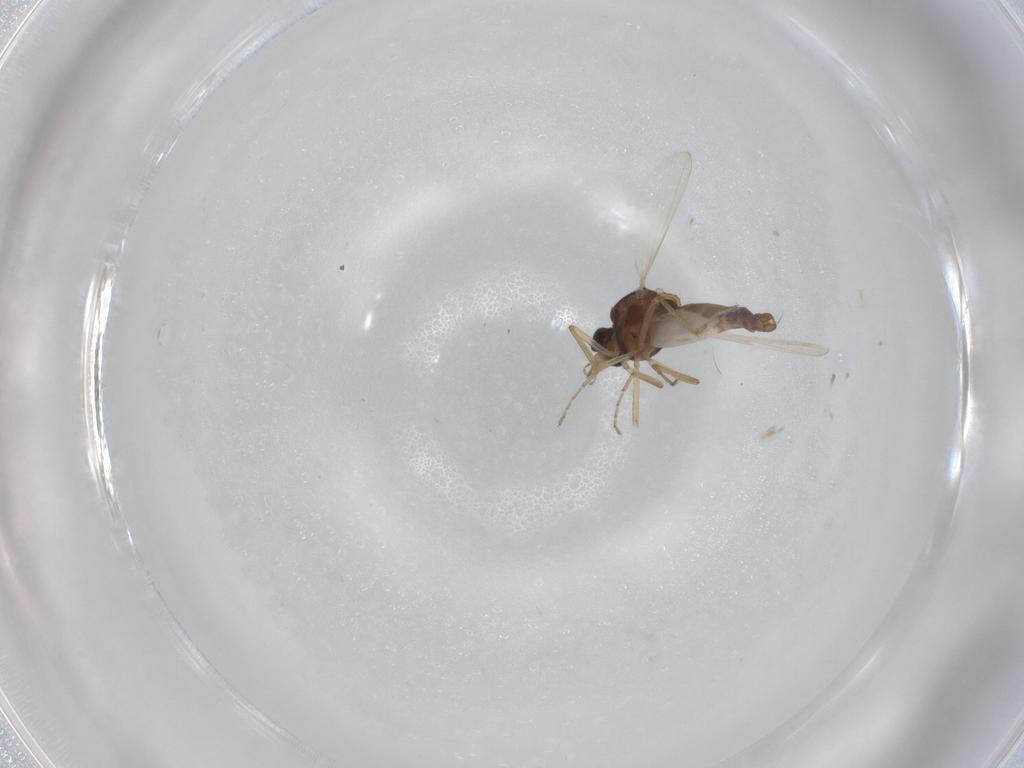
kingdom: Animalia
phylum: Arthropoda
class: Insecta
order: Diptera
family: Ceratopogonidae
